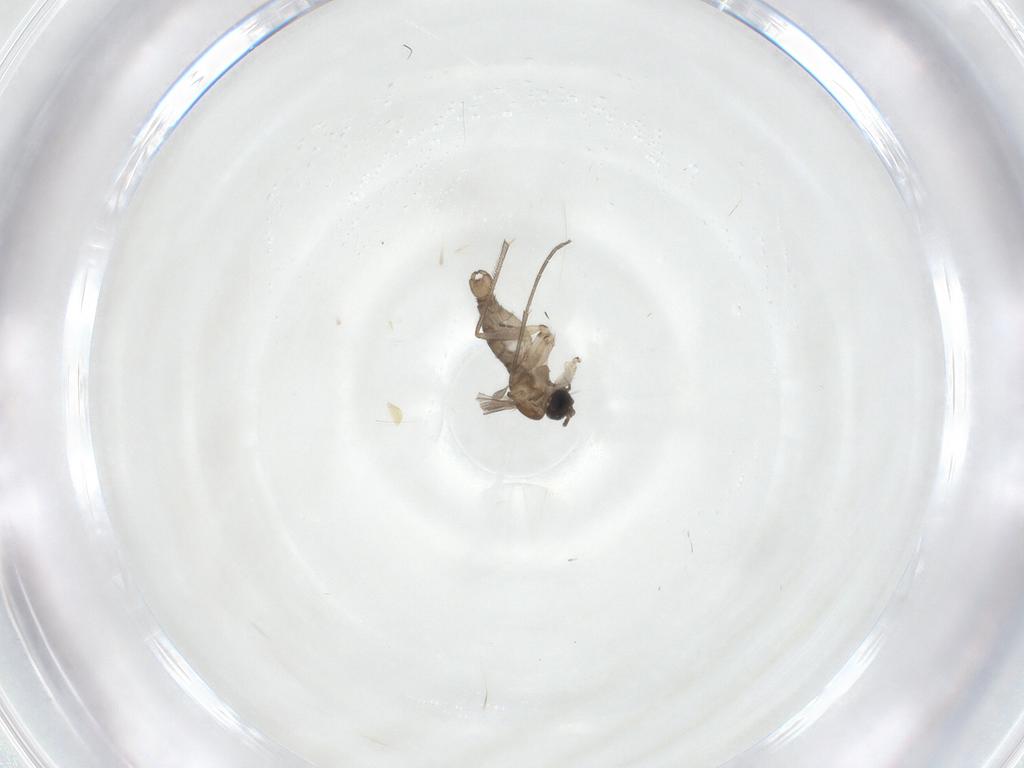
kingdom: Animalia
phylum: Arthropoda
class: Insecta
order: Diptera
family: Sciaridae
